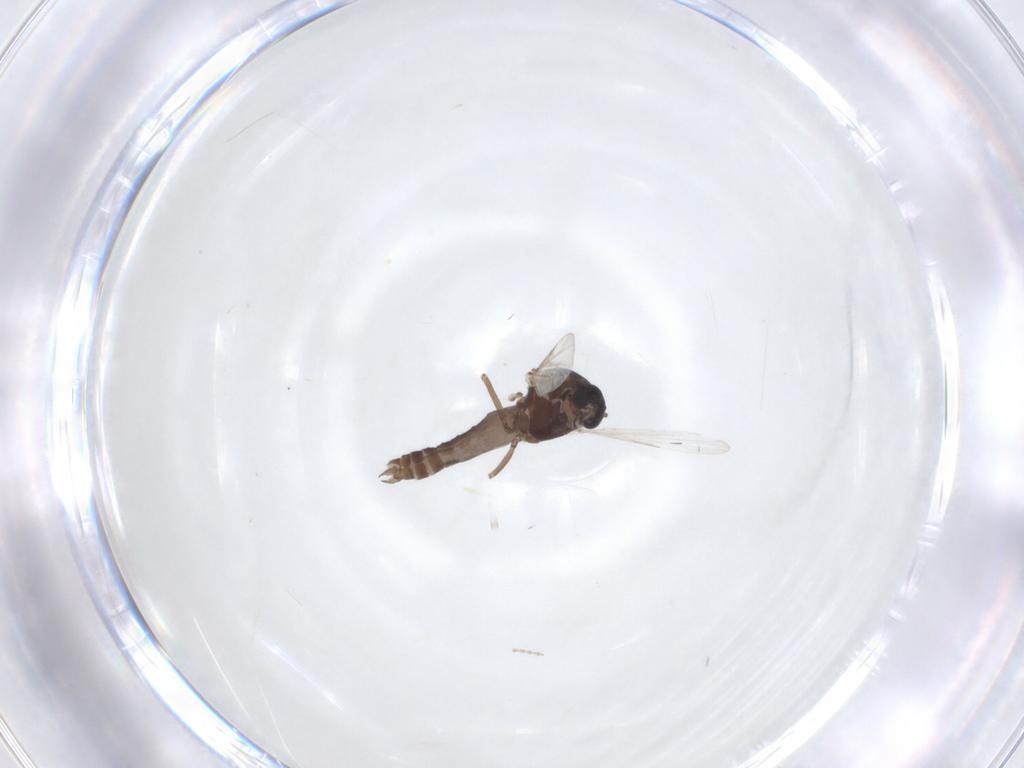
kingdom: Animalia
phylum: Arthropoda
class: Insecta
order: Diptera
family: Ceratopogonidae
